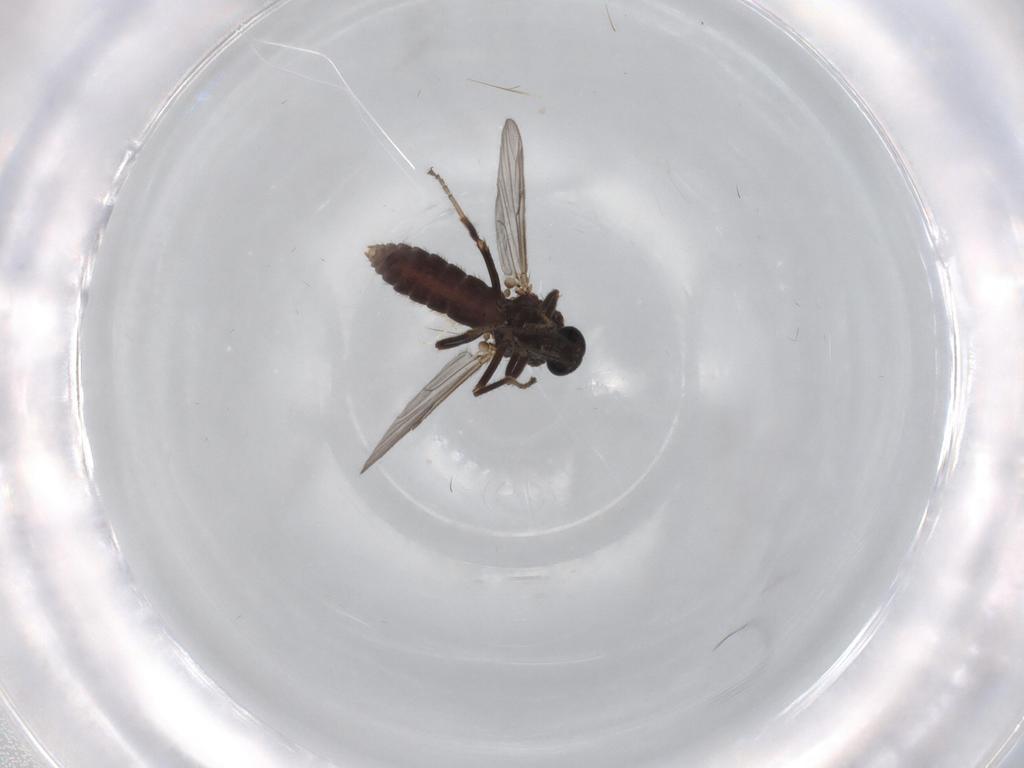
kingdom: Animalia
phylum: Arthropoda
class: Insecta
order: Diptera
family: Ceratopogonidae
